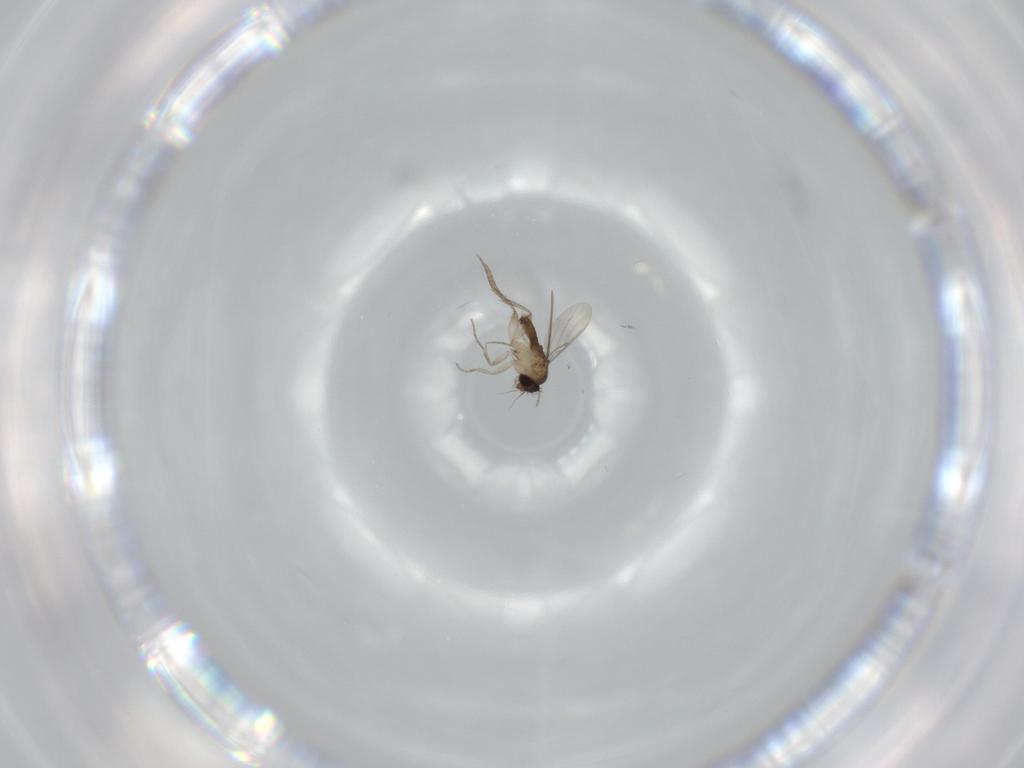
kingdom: Animalia
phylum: Arthropoda
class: Insecta
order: Diptera
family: Phoridae
